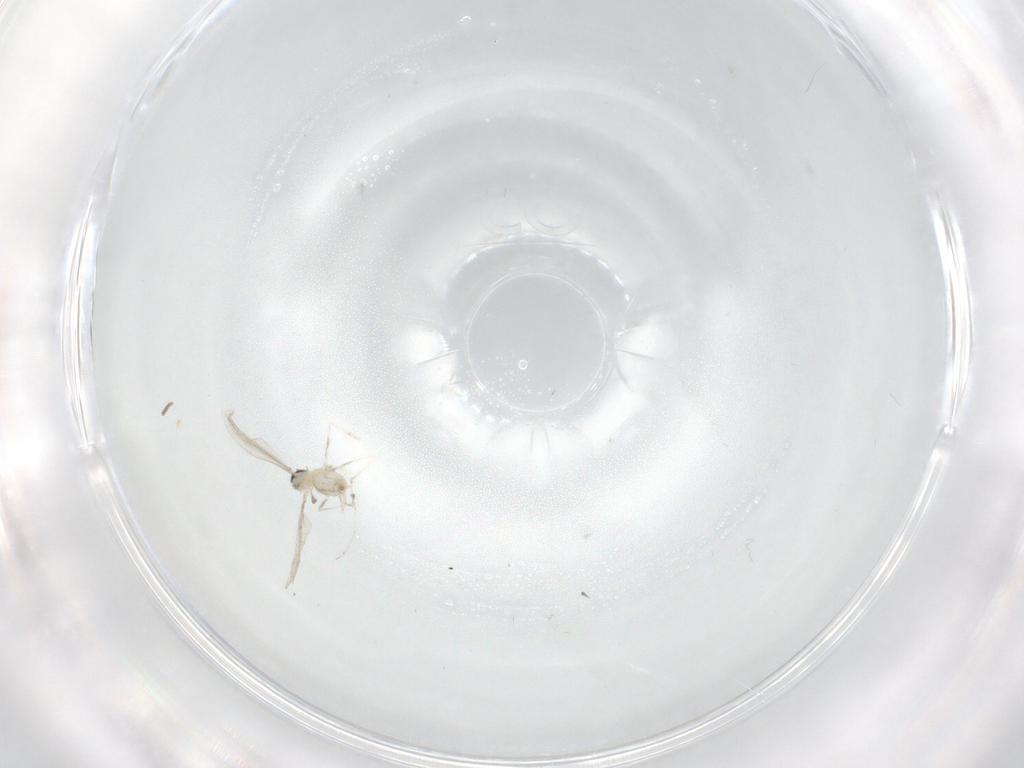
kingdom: Animalia
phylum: Arthropoda
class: Insecta
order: Diptera
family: Cecidomyiidae
